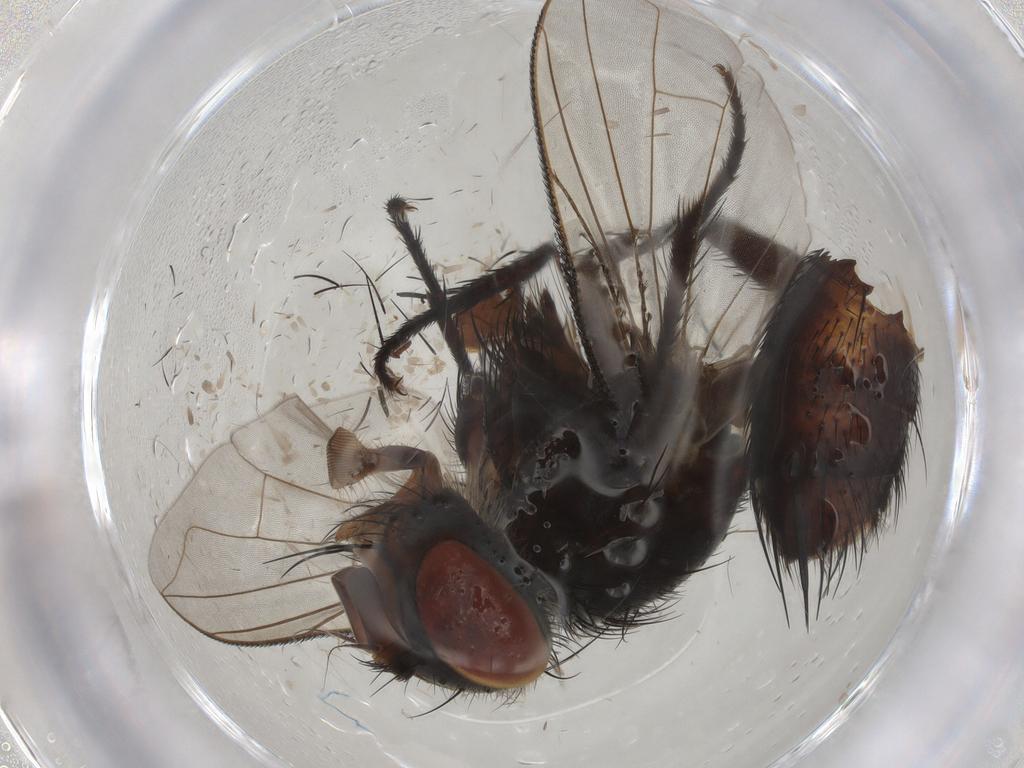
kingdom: Animalia
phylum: Arthropoda
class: Insecta
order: Diptera
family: Tachinidae
